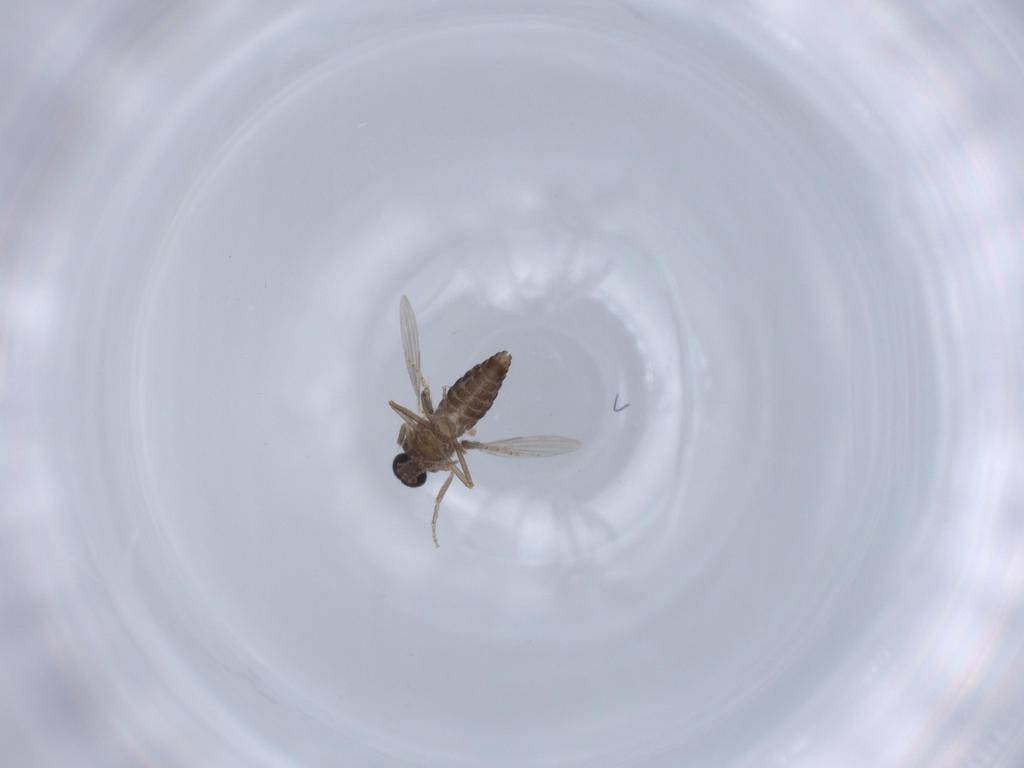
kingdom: Animalia
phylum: Arthropoda
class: Insecta
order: Diptera
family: Ceratopogonidae
